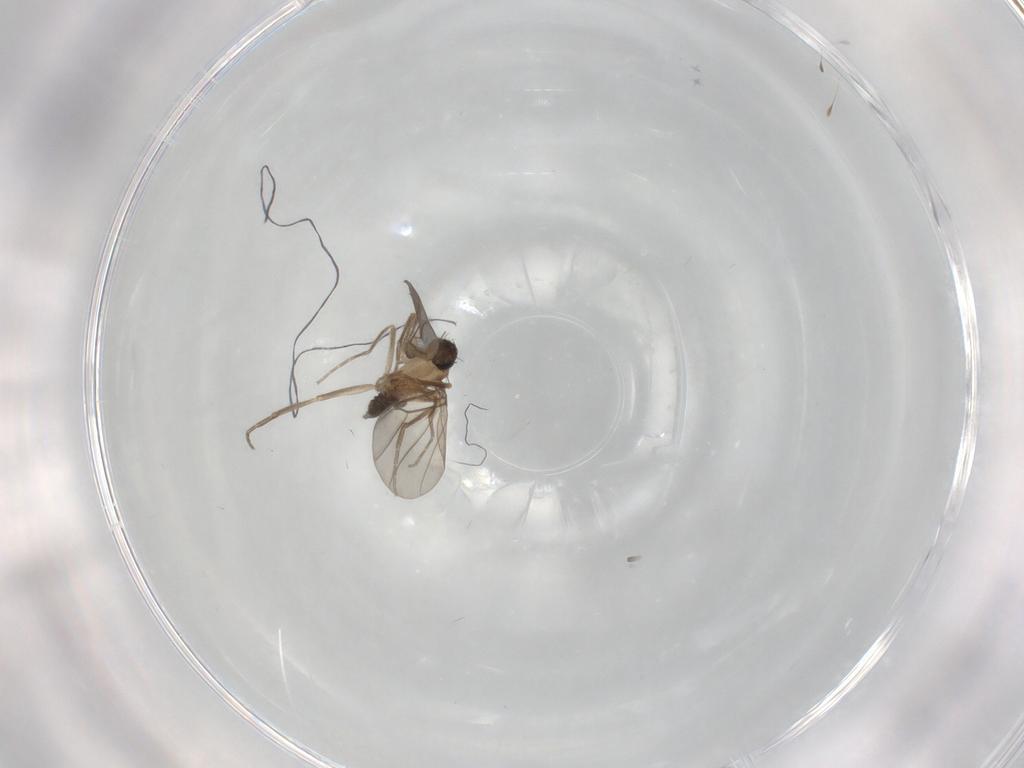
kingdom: Animalia
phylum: Arthropoda
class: Insecta
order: Diptera
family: Phoridae
